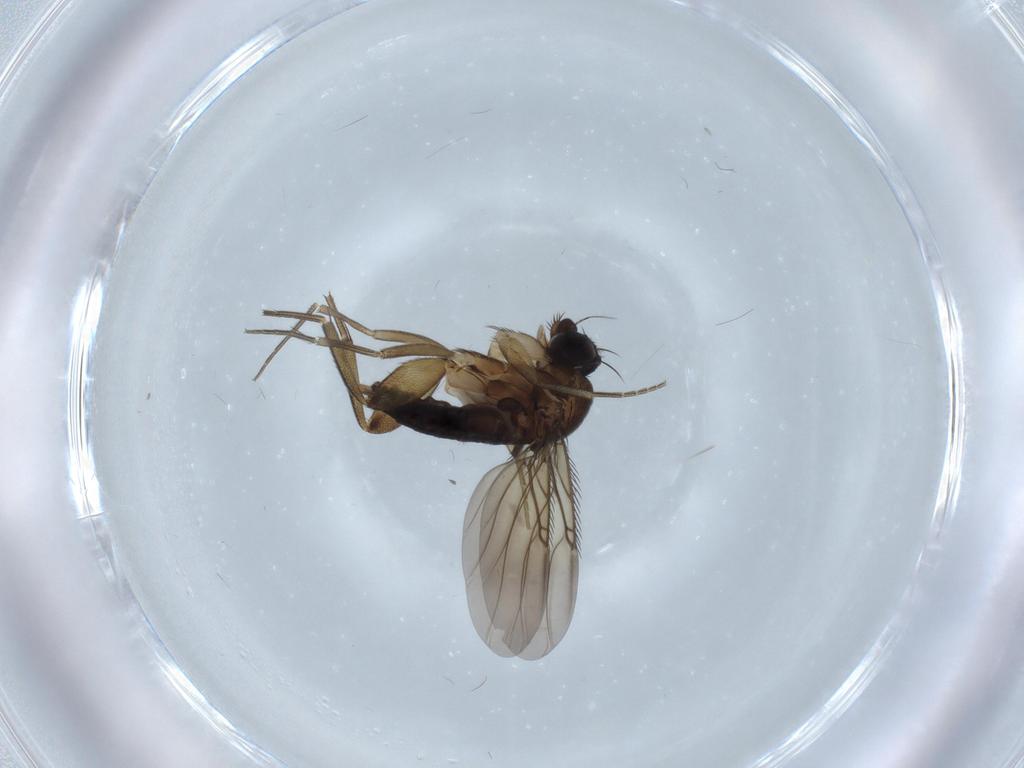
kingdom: Animalia
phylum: Arthropoda
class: Insecta
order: Diptera
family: Phoridae
